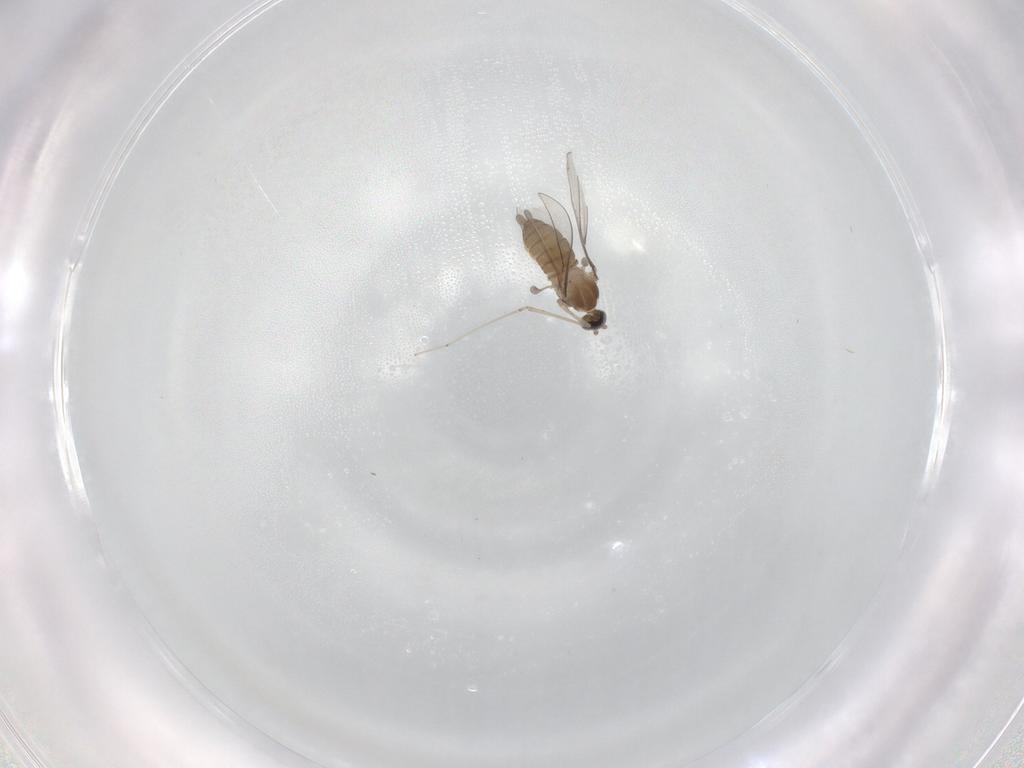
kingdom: Animalia
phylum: Arthropoda
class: Insecta
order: Diptera
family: Cecidomyiidae
